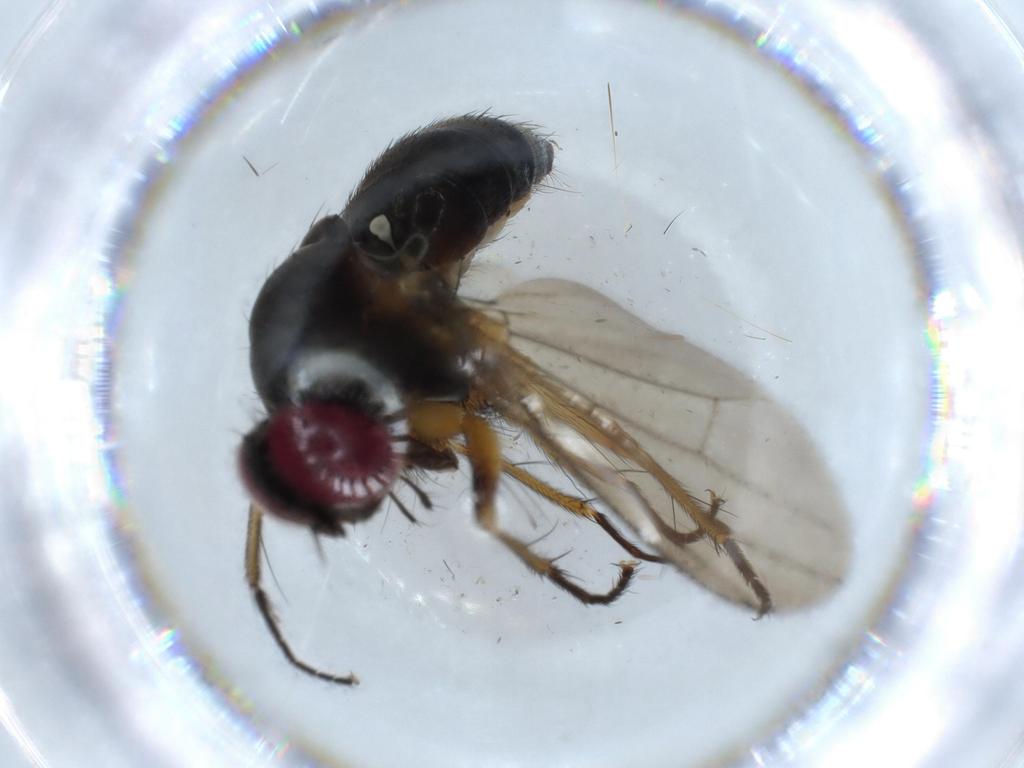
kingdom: Animalia
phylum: Arthropoda
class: Insecta
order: Diptera
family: Muscidae
